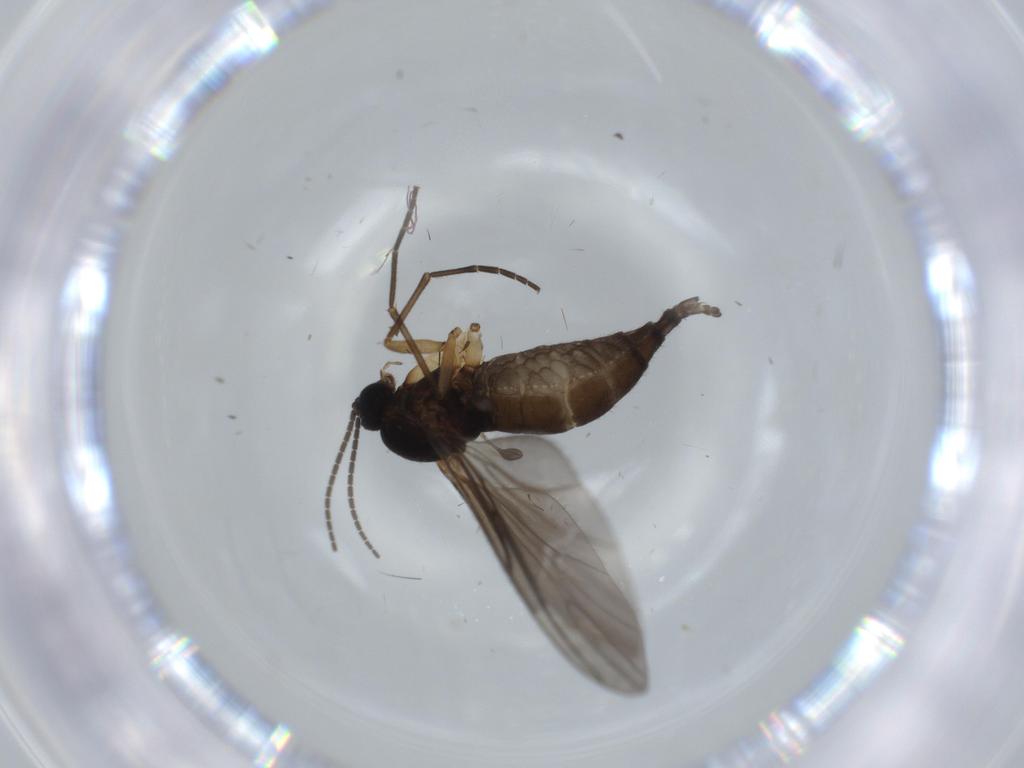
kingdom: Animalia
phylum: Arthropoda
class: Insecta
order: Diptera
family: Sciaridae
